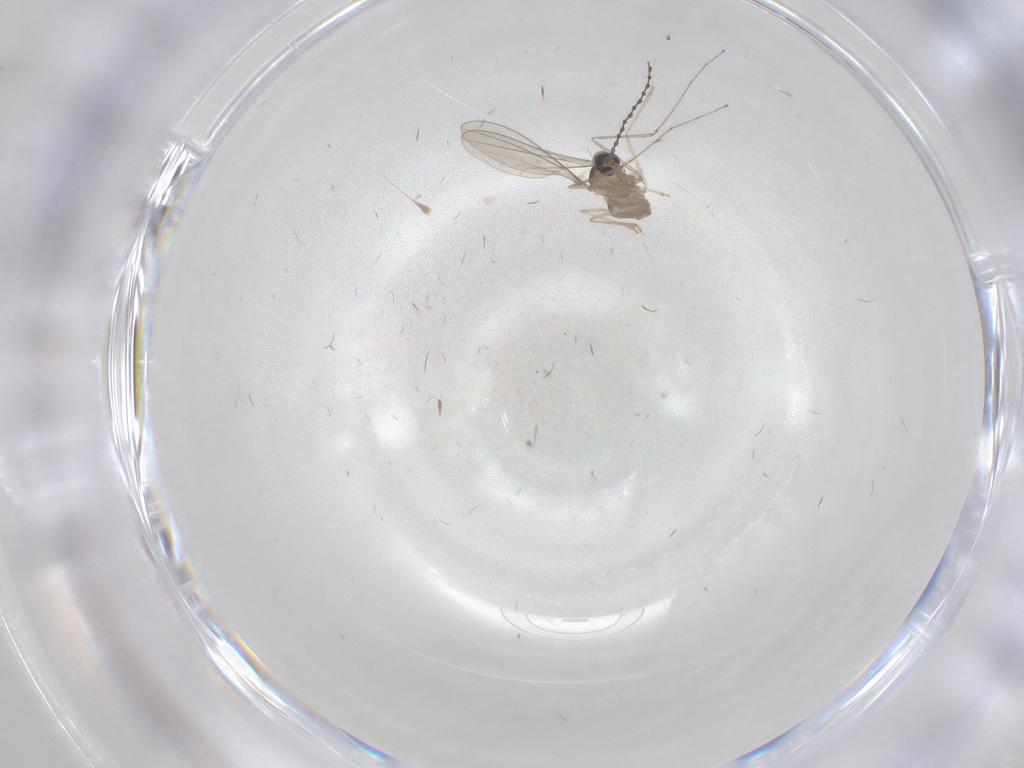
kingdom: Animalia
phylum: Arthropoda
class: Insecta
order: Diptera
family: Cecidomyiidae
